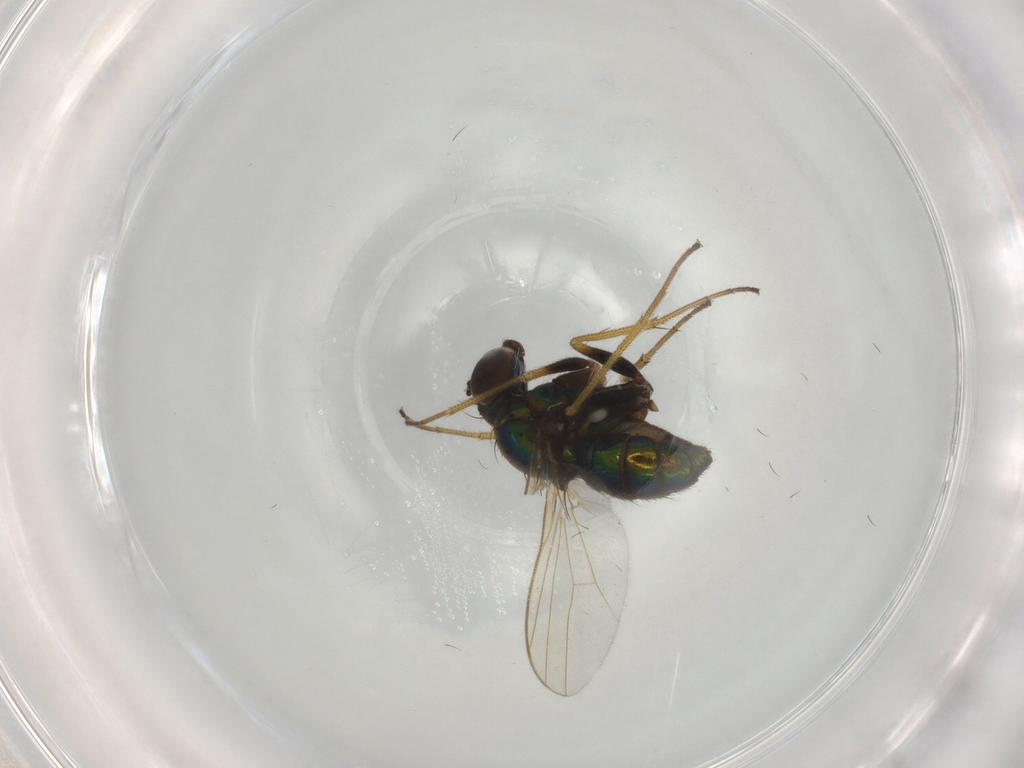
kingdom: Animalia
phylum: Arthropoda
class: Insecta
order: Diptera
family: Dolichopodidae
